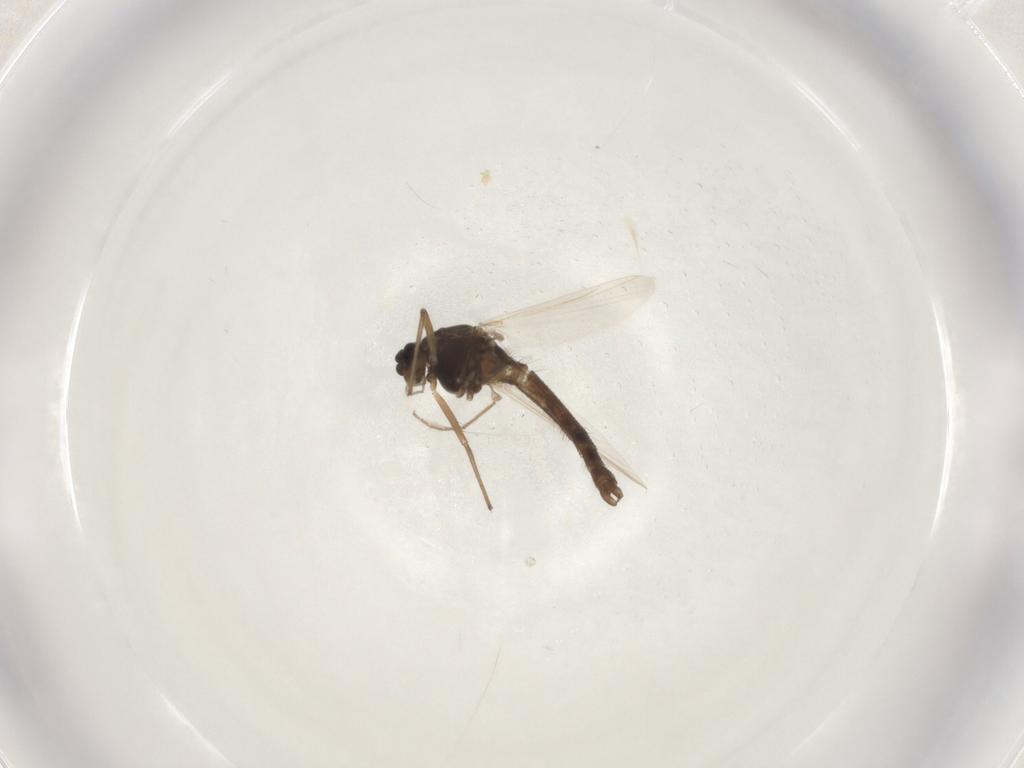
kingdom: Animalia
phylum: Arthropoda
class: Insecta
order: Diptera
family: Chironomidae
